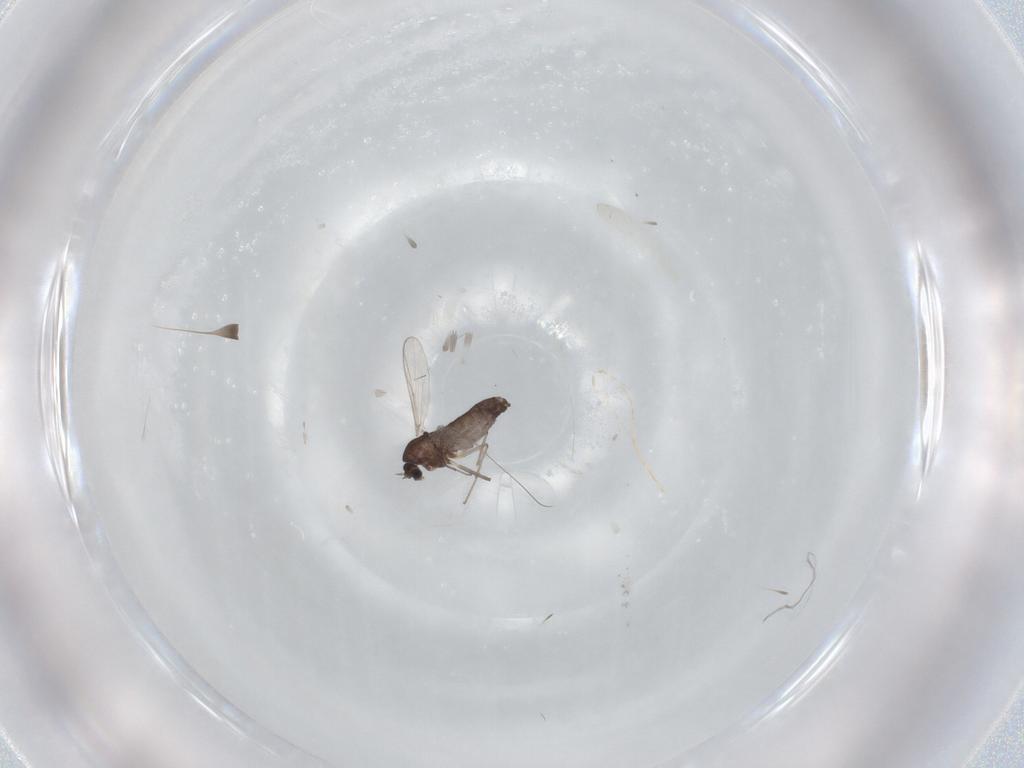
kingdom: Animalia
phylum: Arthropoda
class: Insecta
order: Diptera
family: Chironomidae
